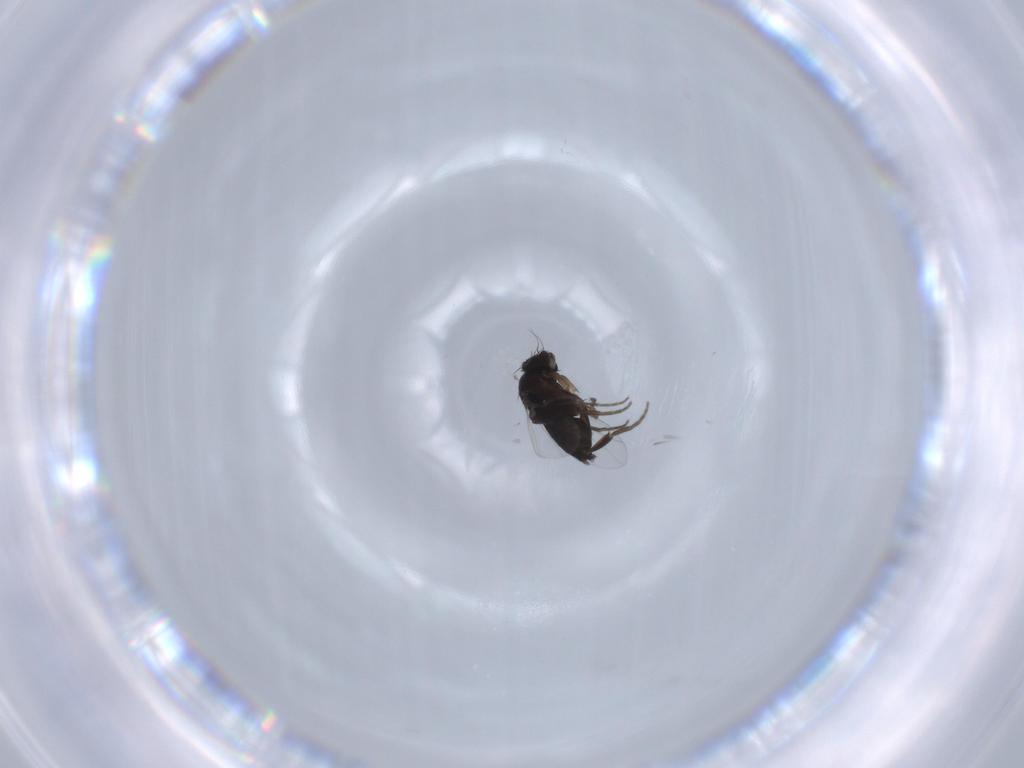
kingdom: Animalia
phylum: Arthropoda
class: Insecta
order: Diptera
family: Phoridae
